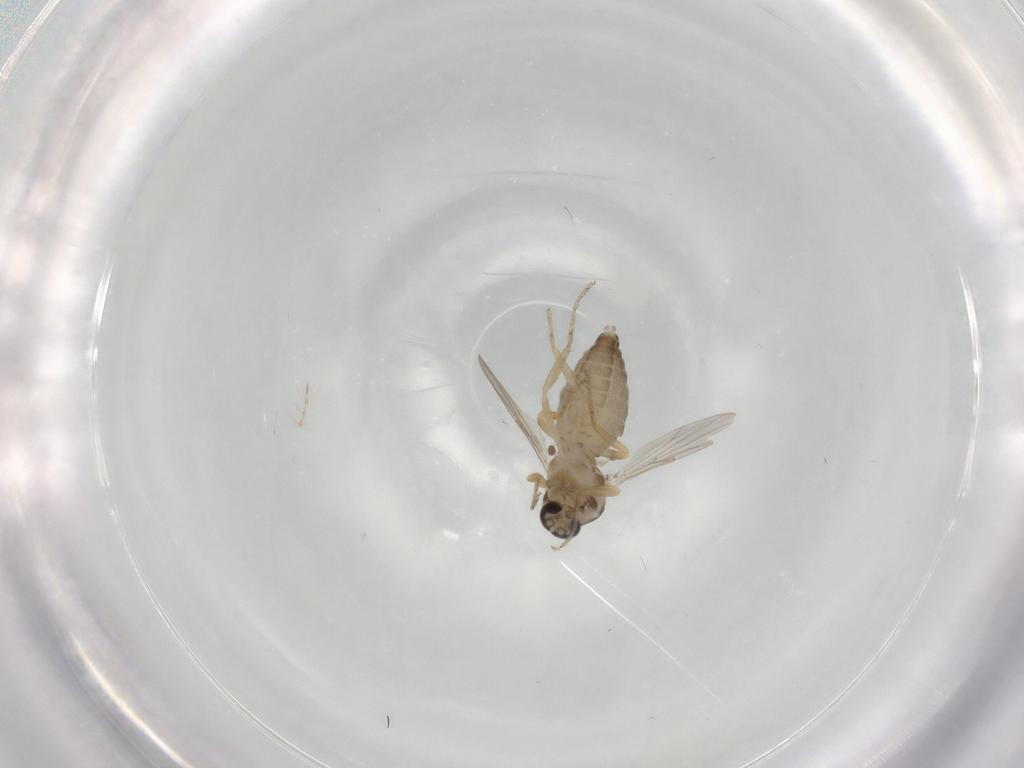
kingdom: Animalia
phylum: Arthropoda
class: Insecta
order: Diptera
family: Ceratopogonidae
